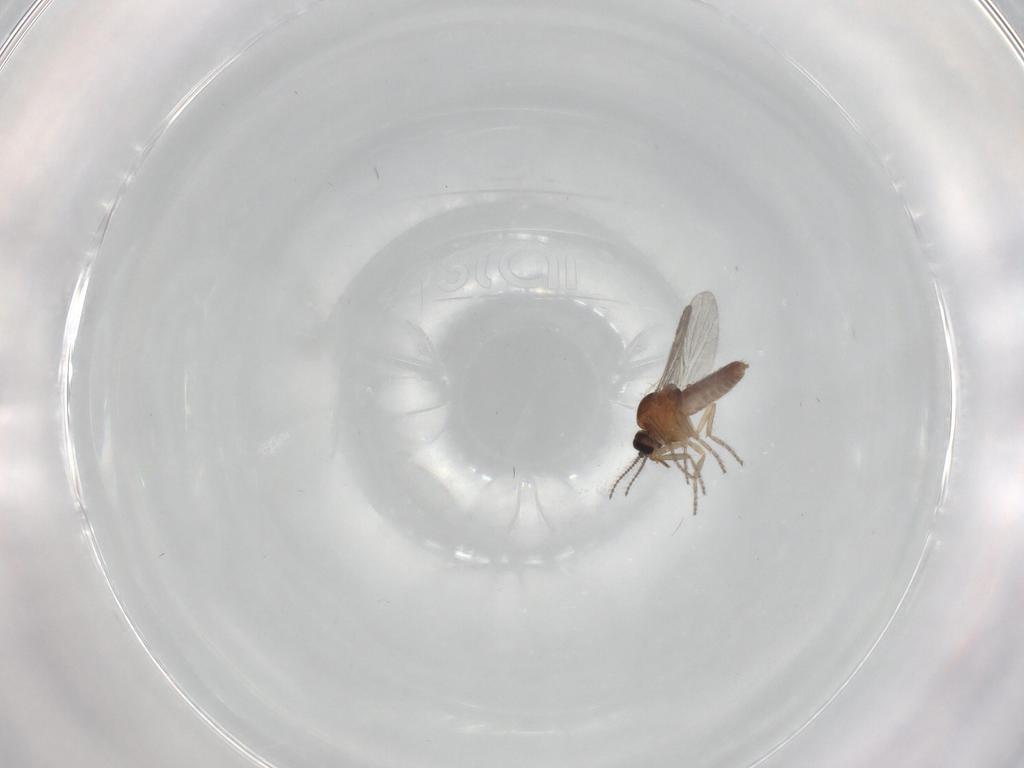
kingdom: Animalia
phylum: Arthropoda
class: Insecta
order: Diptera
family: Ceratopogonidae
